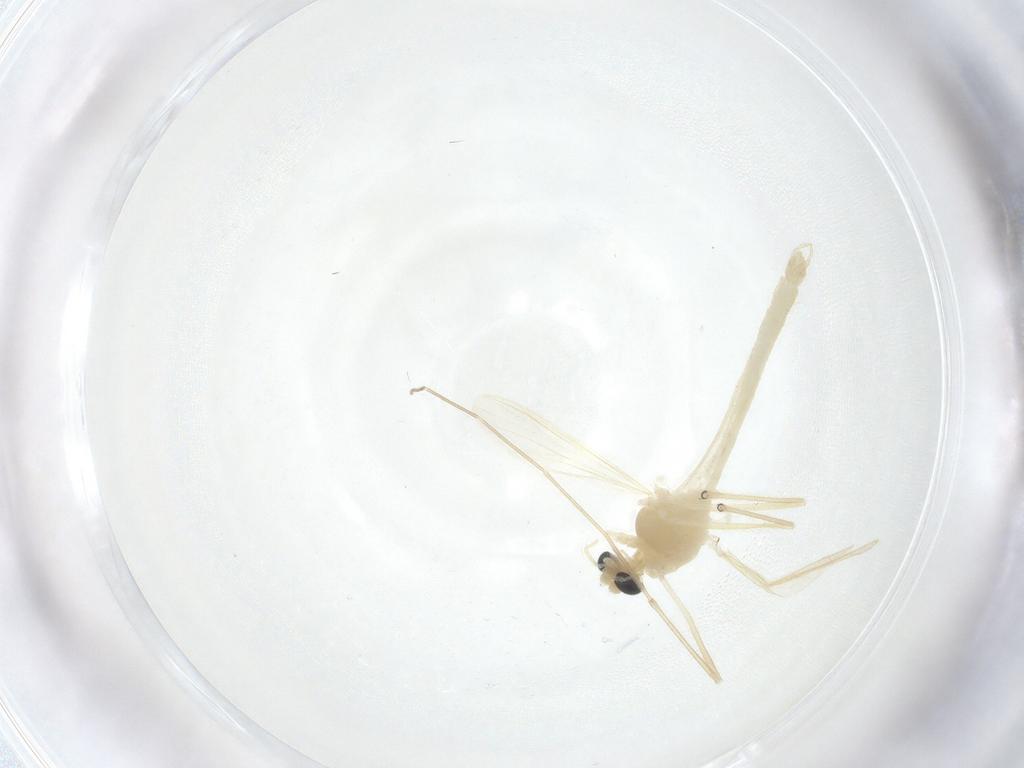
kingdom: Animalia
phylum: Arthropoda
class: Insecta
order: Diptera
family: Chironomidae
